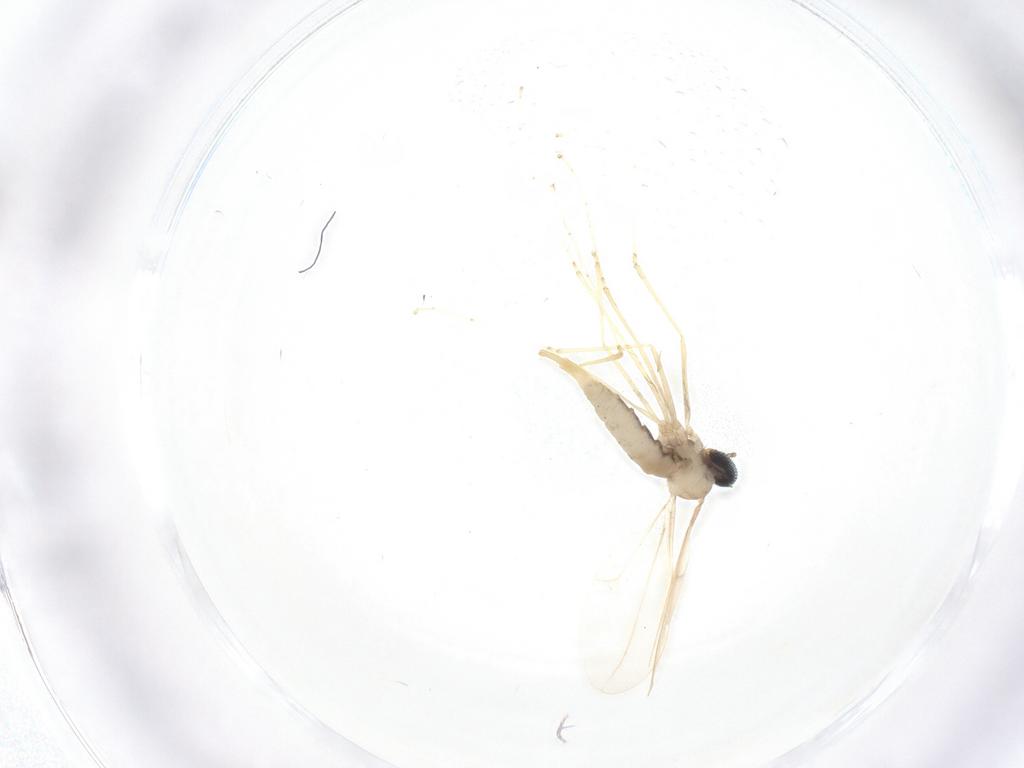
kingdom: Animalia
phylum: Arthropoda
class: Insecta
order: Diptera
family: Cecidomyiidae
